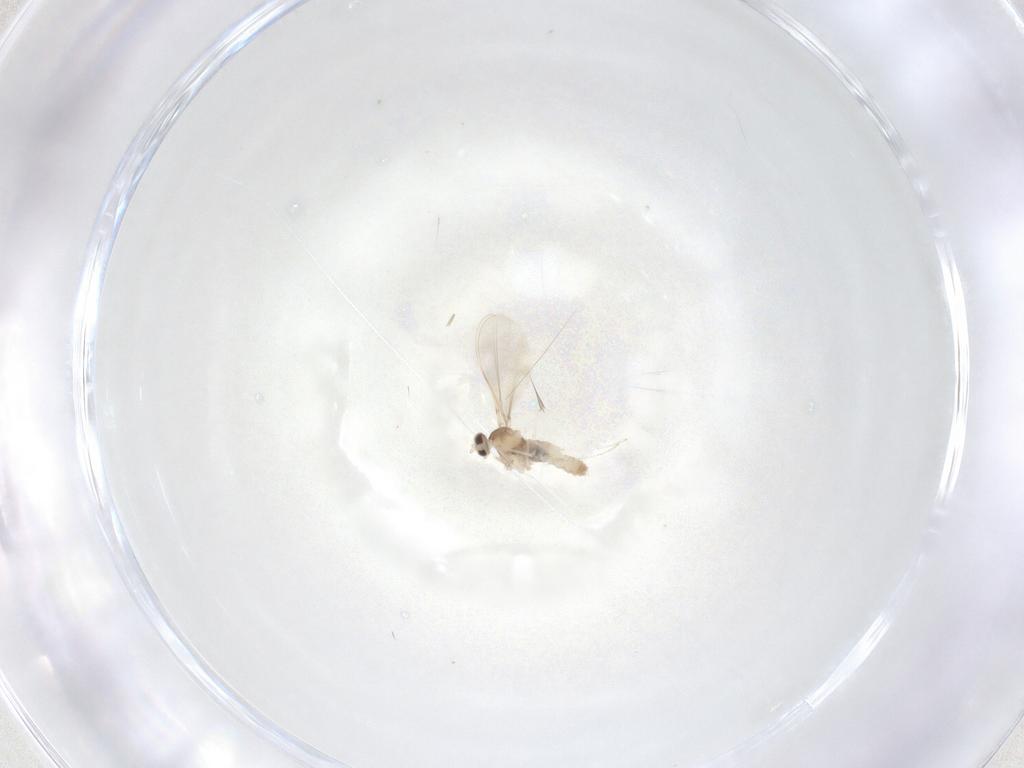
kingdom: Animalia
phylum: Arthropoda
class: Insecta
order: Diptera
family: Cecidomyiidae
